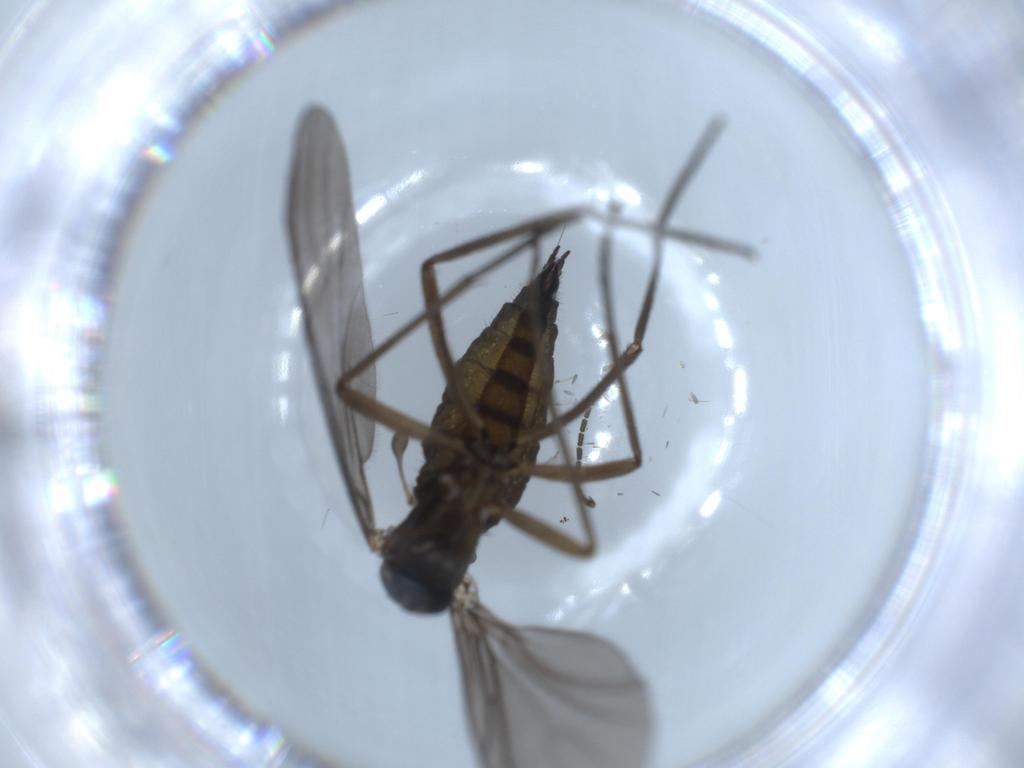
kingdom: Animalia
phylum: Arthropoda
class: Insecta
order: Diptera
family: Sciaridae
